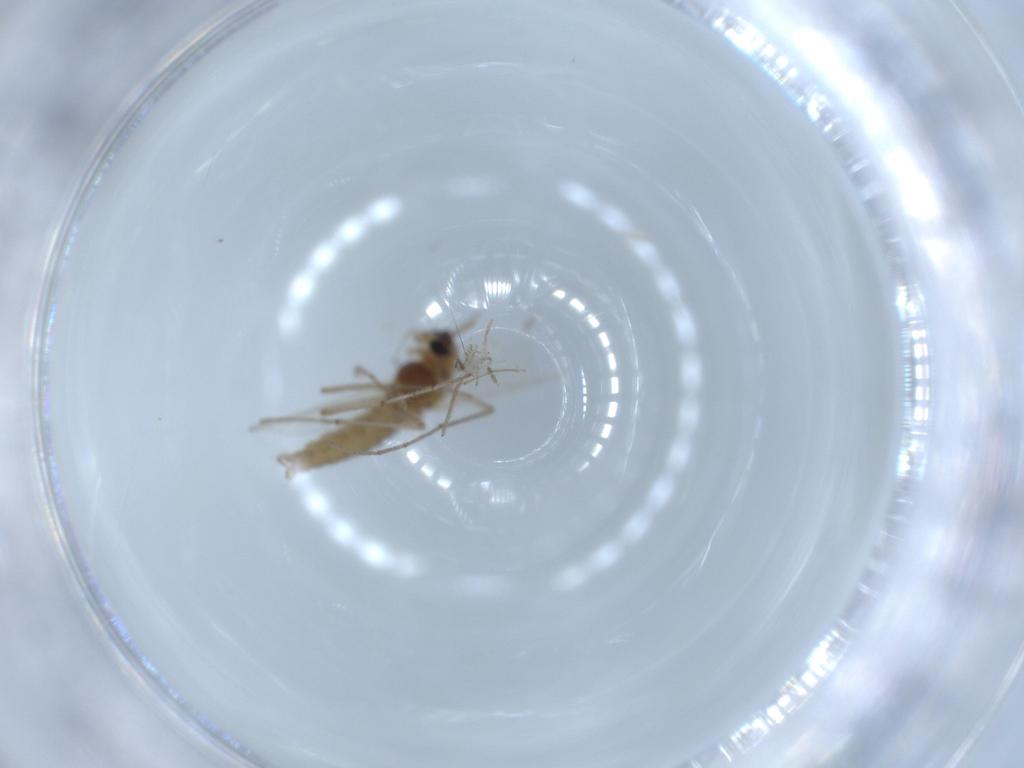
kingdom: Animalia
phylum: Arthropoda
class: Insecta
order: Diptera
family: Chironomidae
